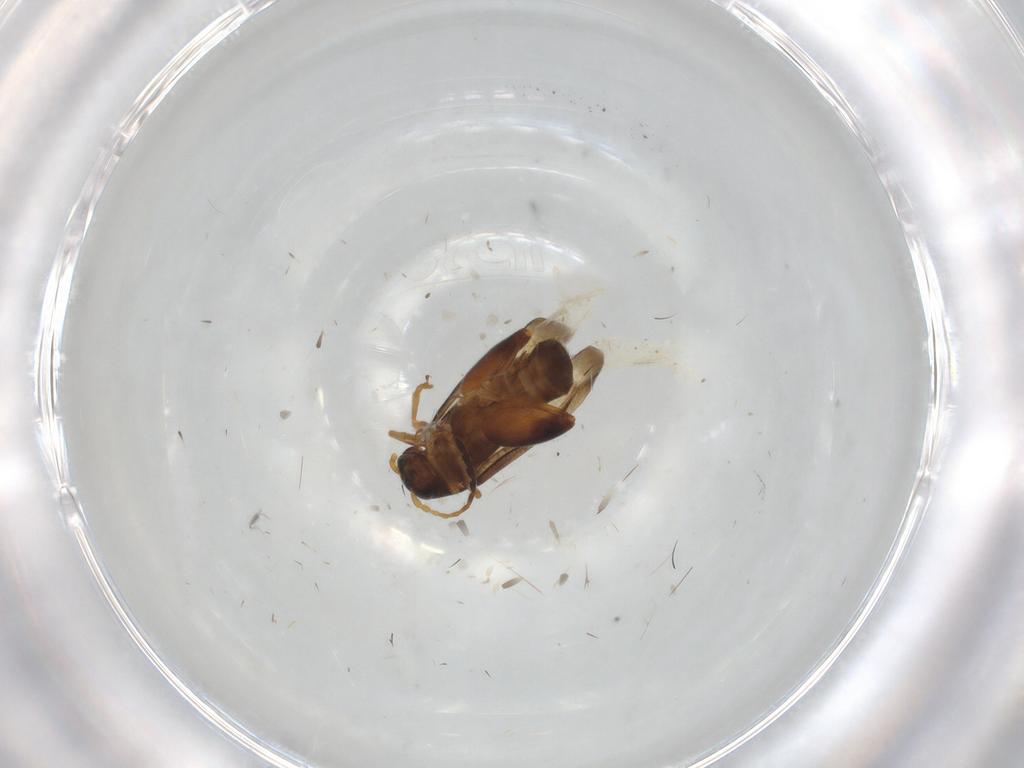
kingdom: Animalia
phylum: Arthropoda
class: Insecta
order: Coleoptera
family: Chrysomelidae
